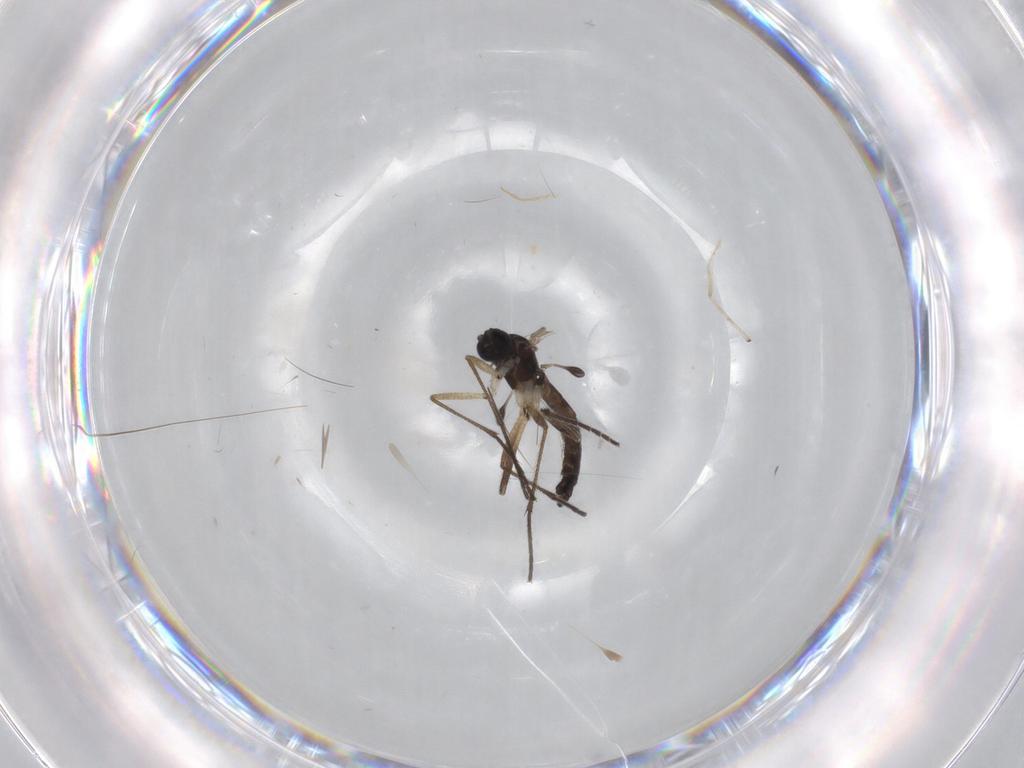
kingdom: Animalia
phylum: Arthropoda
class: Insecta
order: Diptera
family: Sciaridae
